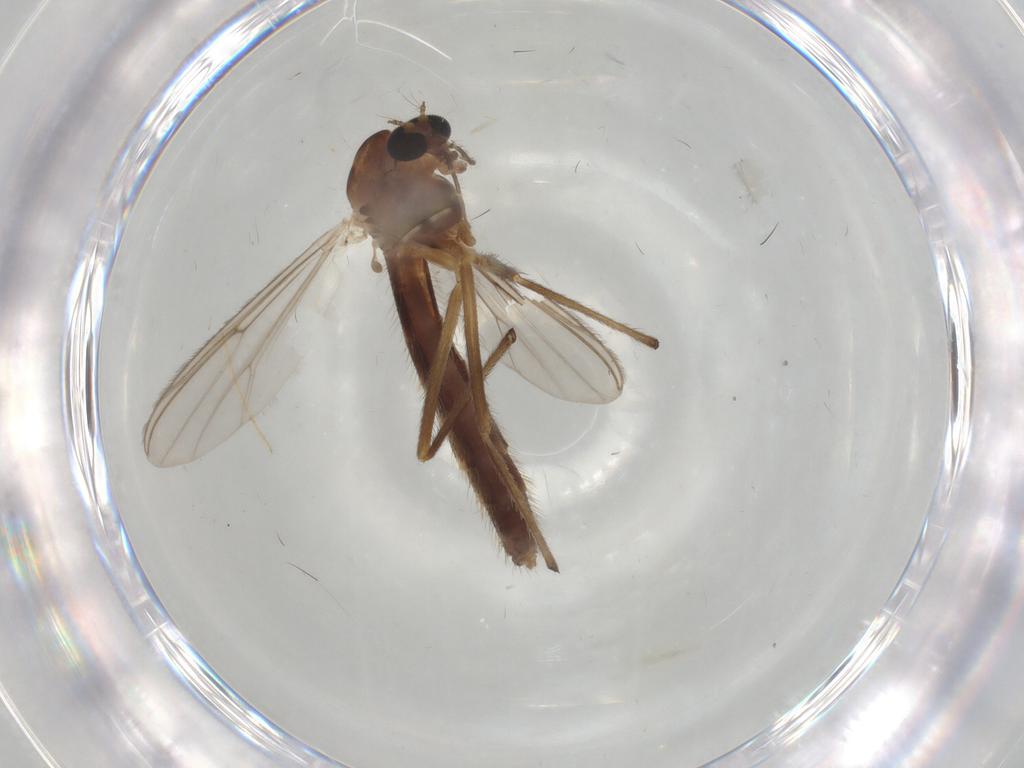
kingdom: Animalia
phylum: Arthropoda
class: Insecta
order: Diptera
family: Chironomidae
